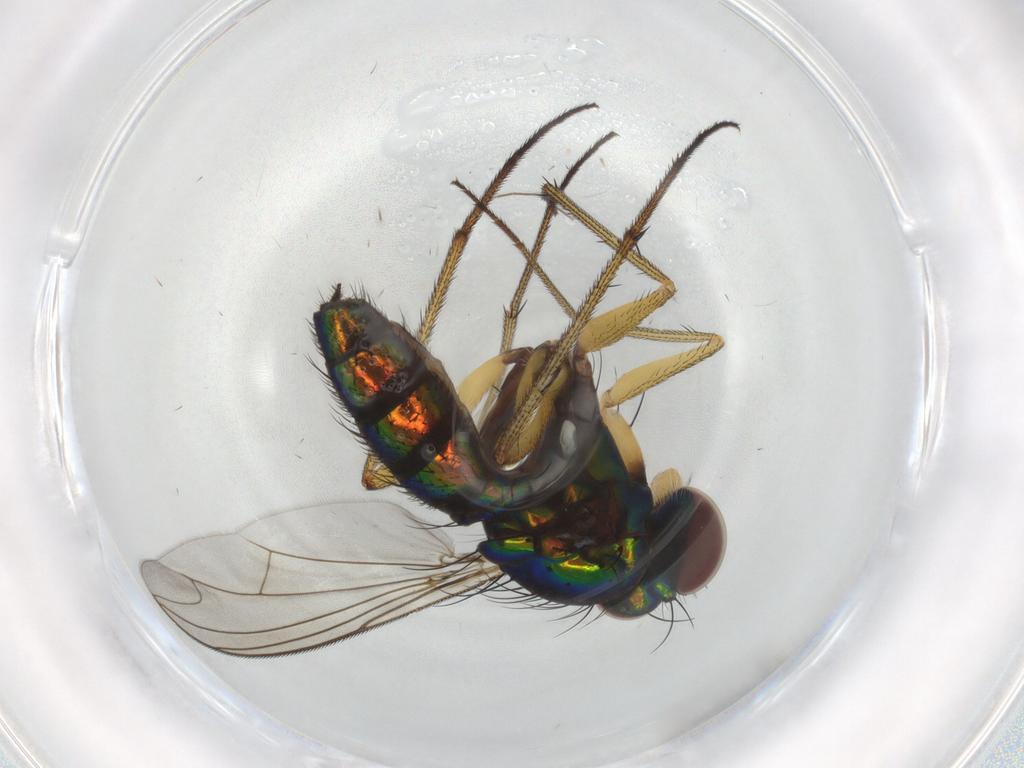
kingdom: Animalia
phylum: Arthropoda
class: Insecta
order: Diptera
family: Dolichopodidae
